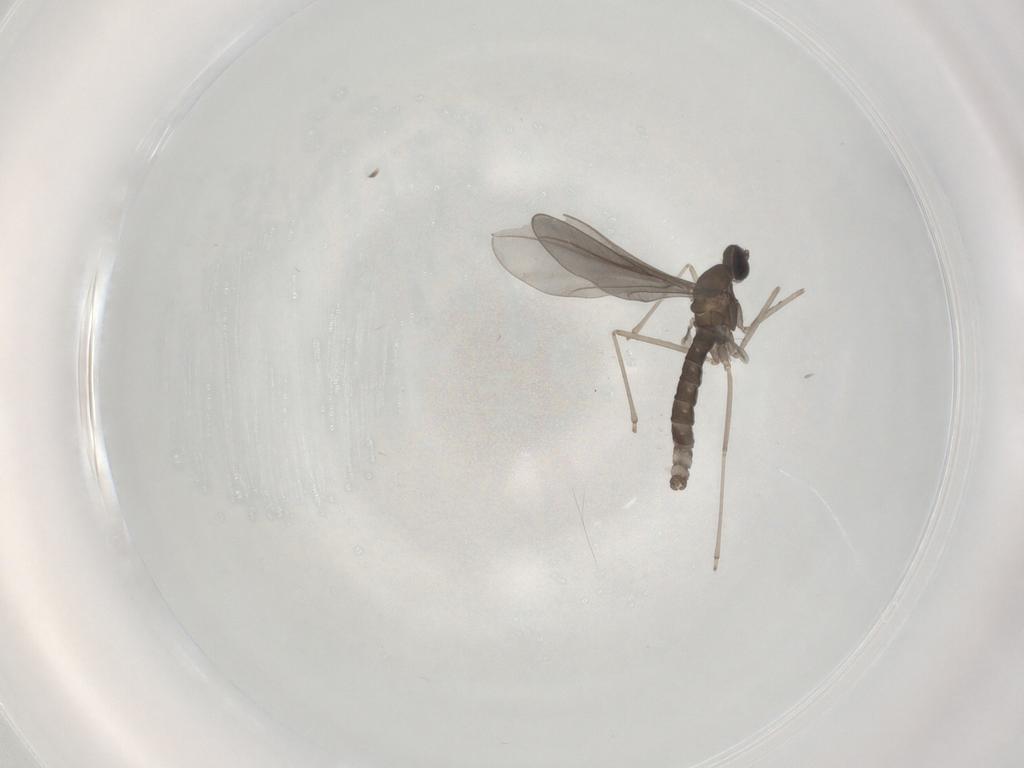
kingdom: Animalia
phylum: Arthropoda
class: Insecta
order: Diptera
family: Cecidomyiidae
